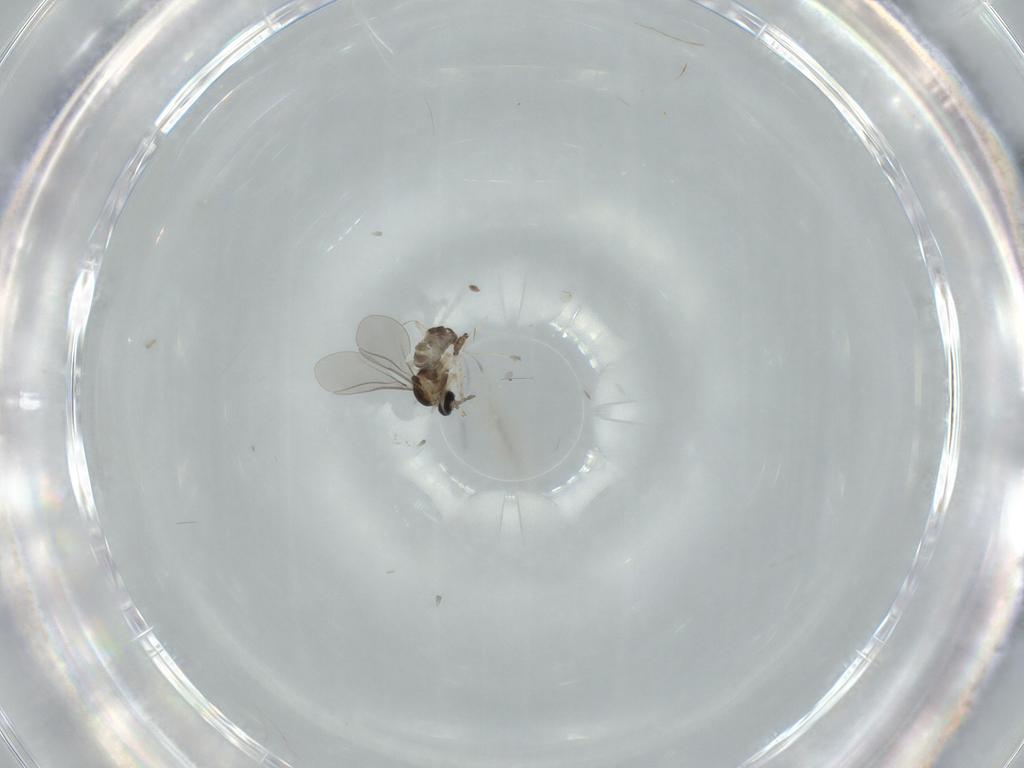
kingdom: Animalia
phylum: Arthropoda
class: Insecta
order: Diptera
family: Cecidomyiidae
